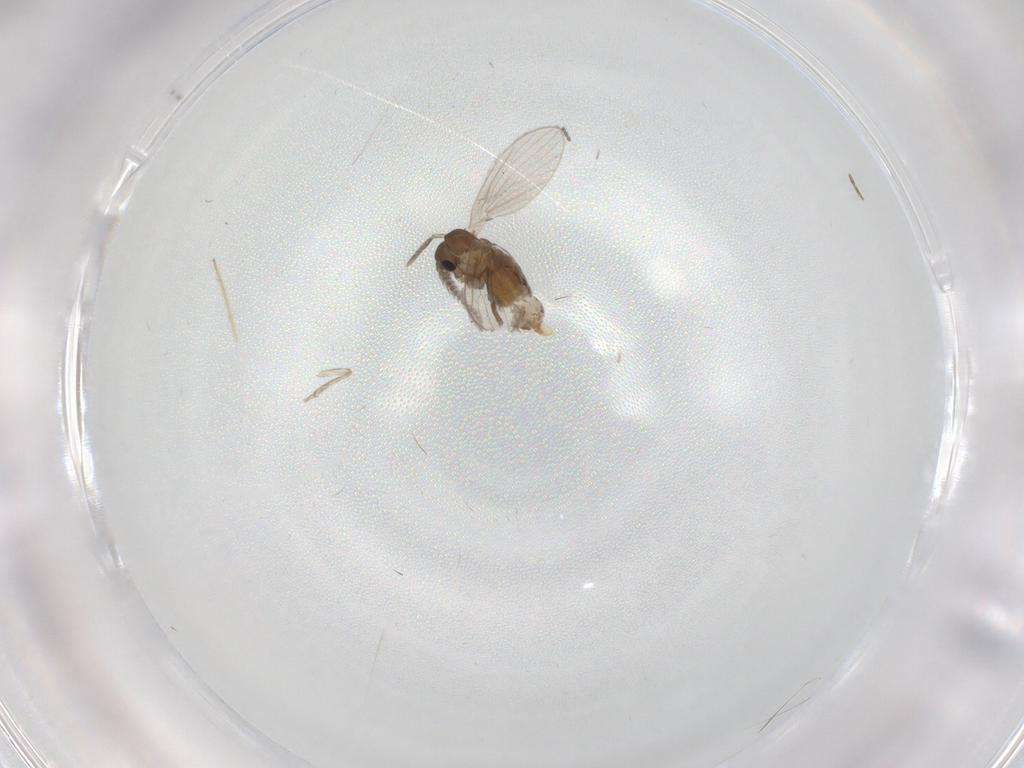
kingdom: Animalia
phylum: Arthropoda
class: Insecta
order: Diptera
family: Chironomidae
